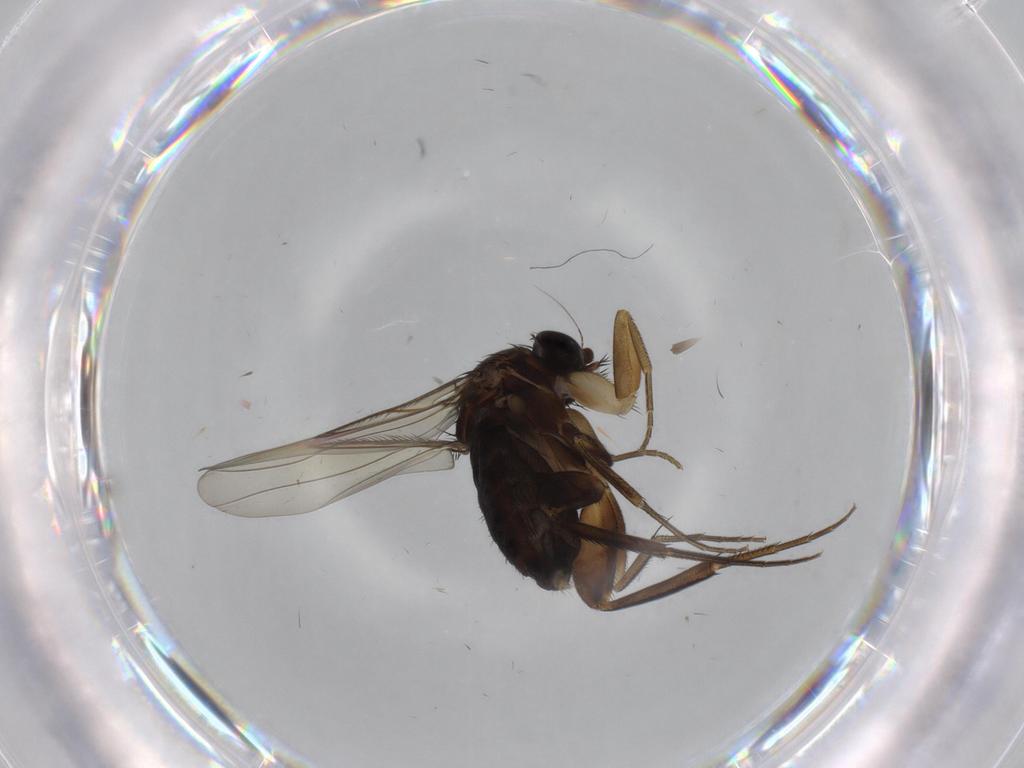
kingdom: Animalia
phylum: Arthropoda
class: Insecta
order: Diptera
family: Phoridae
